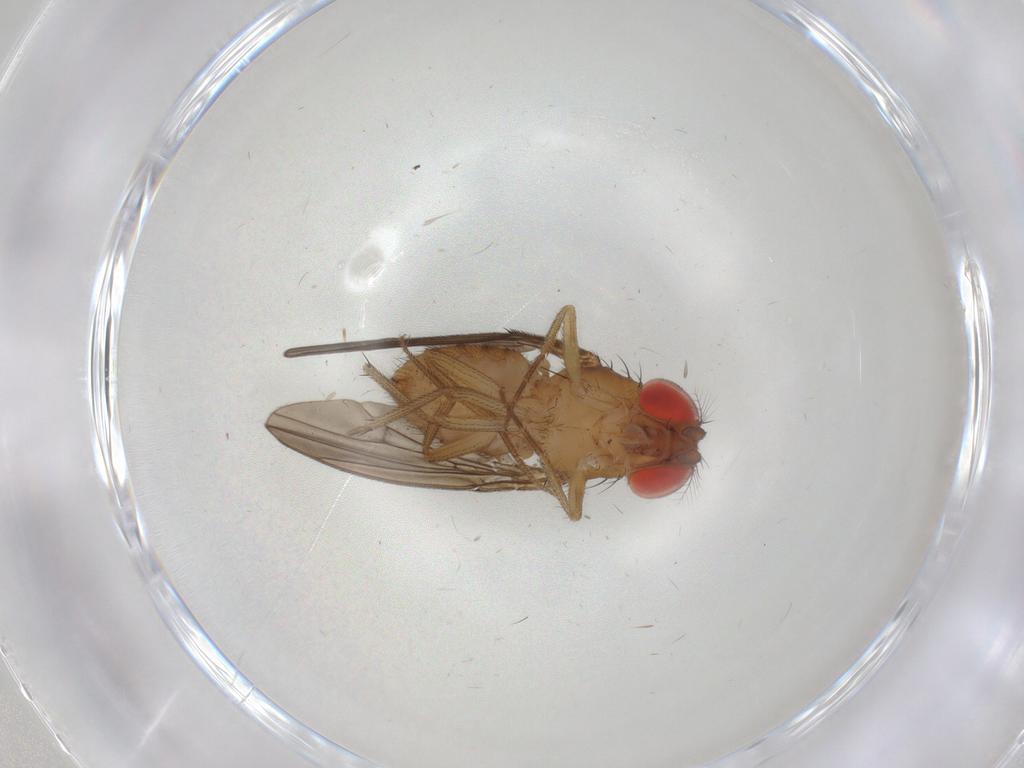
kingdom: Animalia
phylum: Arthropoda
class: Insecta
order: Diptera
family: Drosophilidae
